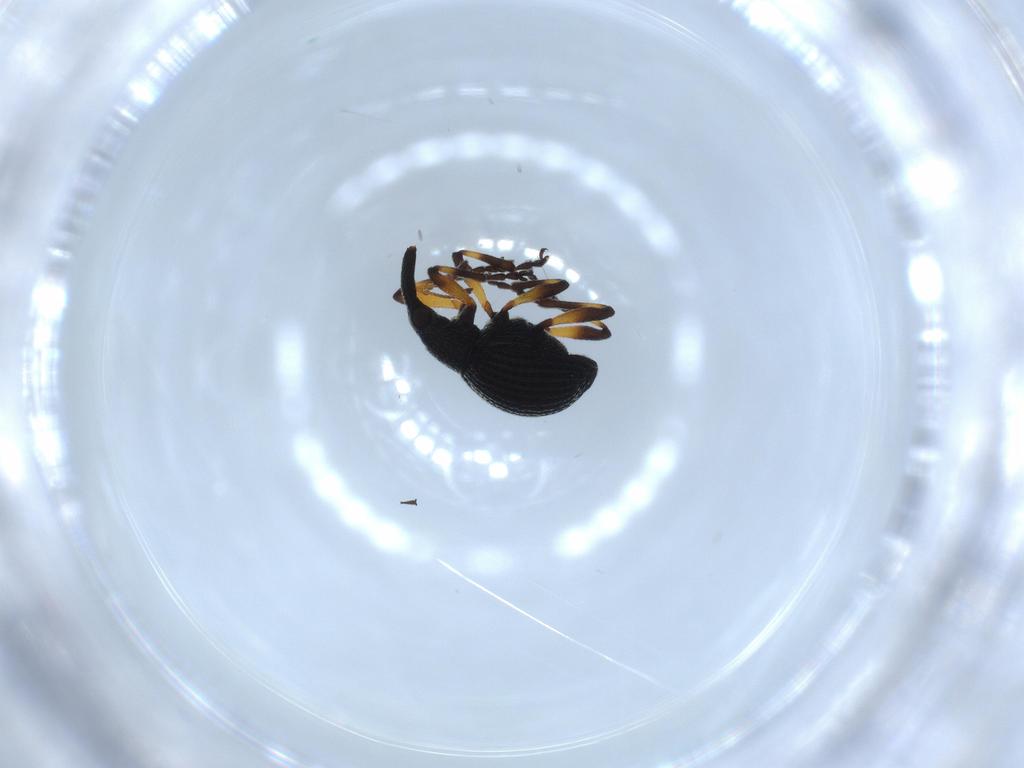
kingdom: Animalia
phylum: Arthropoda
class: Insecta
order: Coleoptera
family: Brentidae
